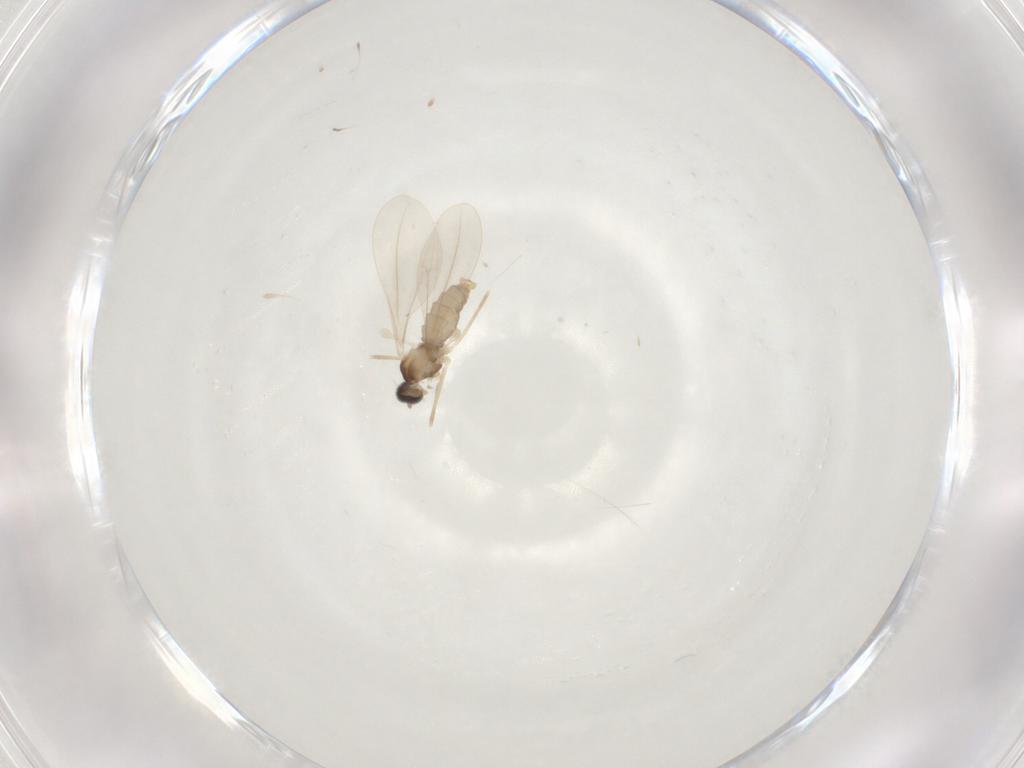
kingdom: Animalia
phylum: Arthropoda
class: Insecta
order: Diptera
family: Cecidomyiidae
